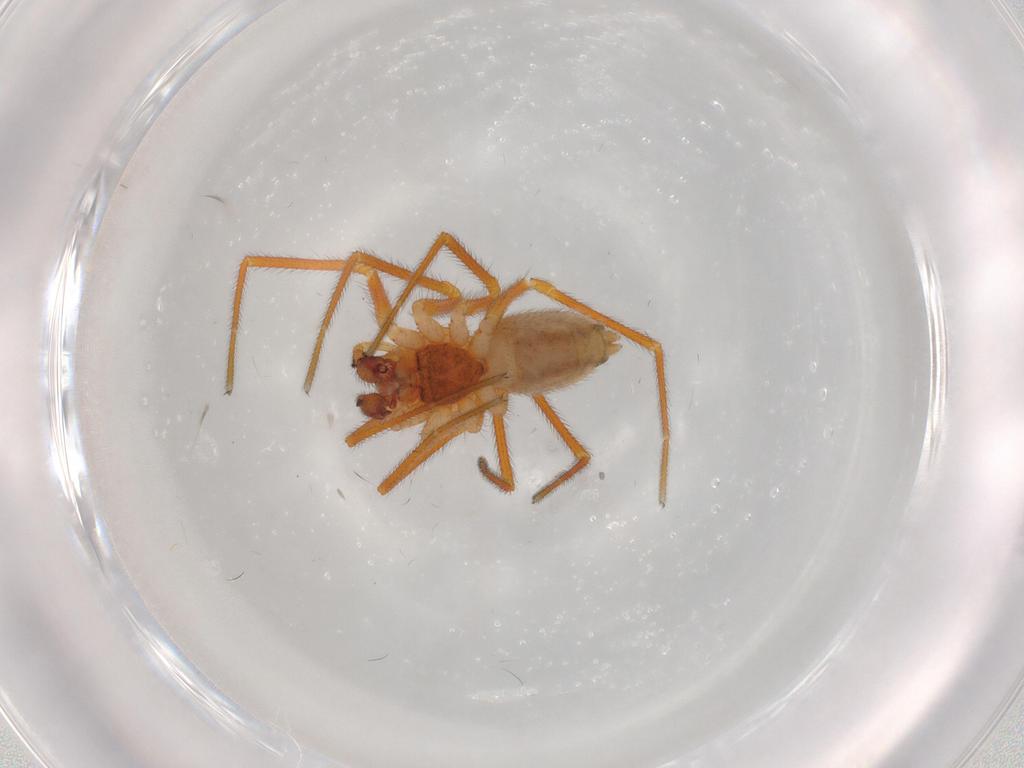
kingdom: Animalia
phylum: Arthropoda
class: Arachnida
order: Araneae
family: Linyphiidae
